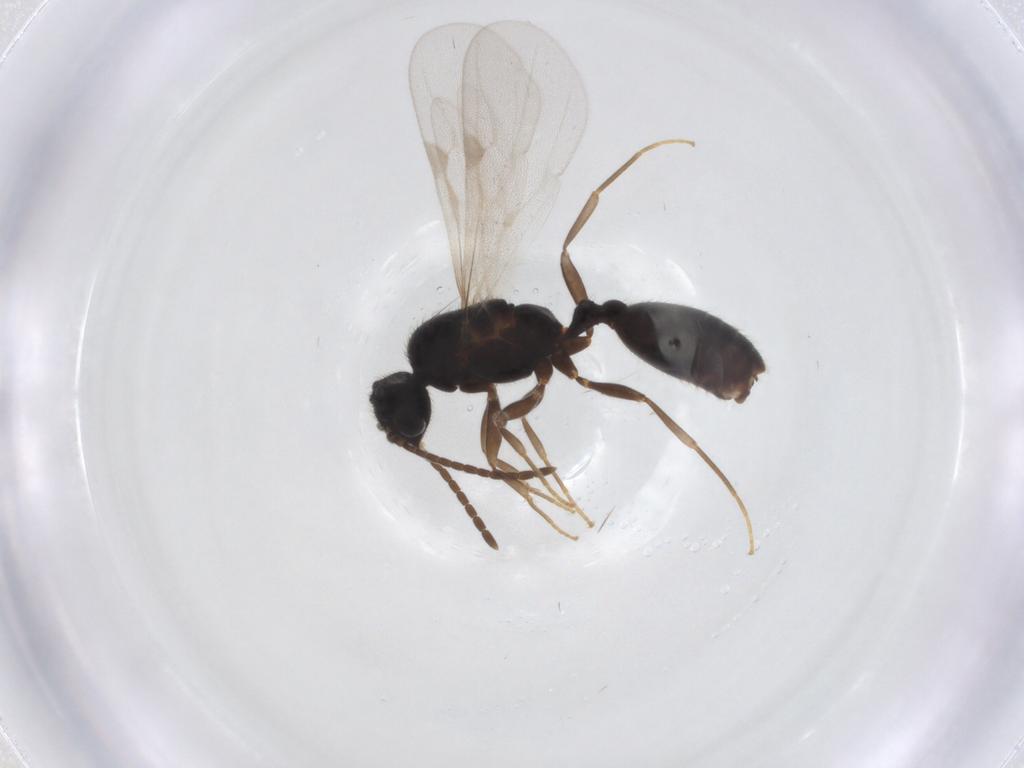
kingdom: Animalia
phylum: Arthropoda
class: Insecta
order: Hymenoptera
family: Formicidae
